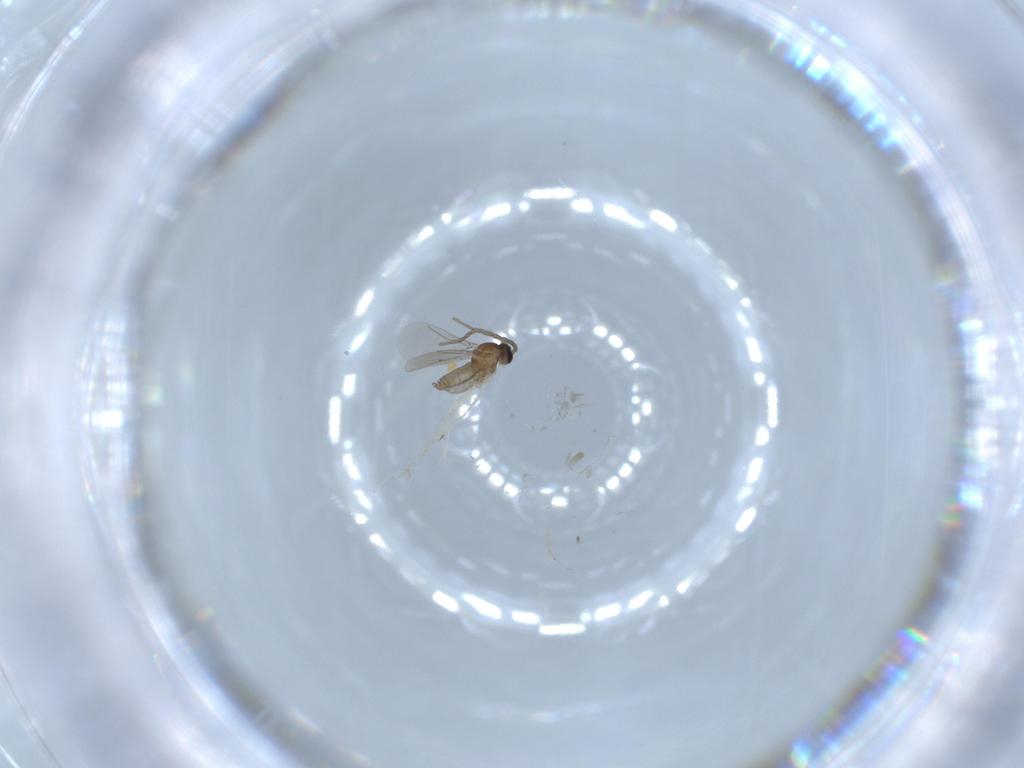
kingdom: Animalia
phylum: Arthropoda
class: Insecta
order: Diptera
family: Cecidomyiidae
